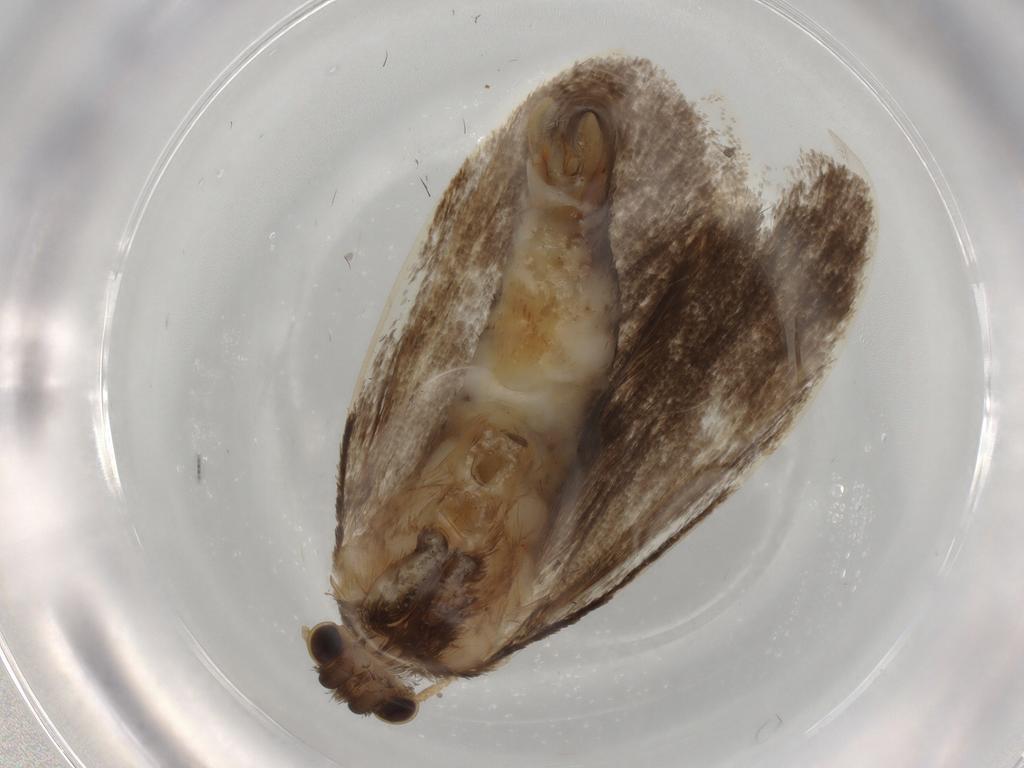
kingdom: Animalia
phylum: Arthropoda
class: Insecta
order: Lepidoptera
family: Tineidae
